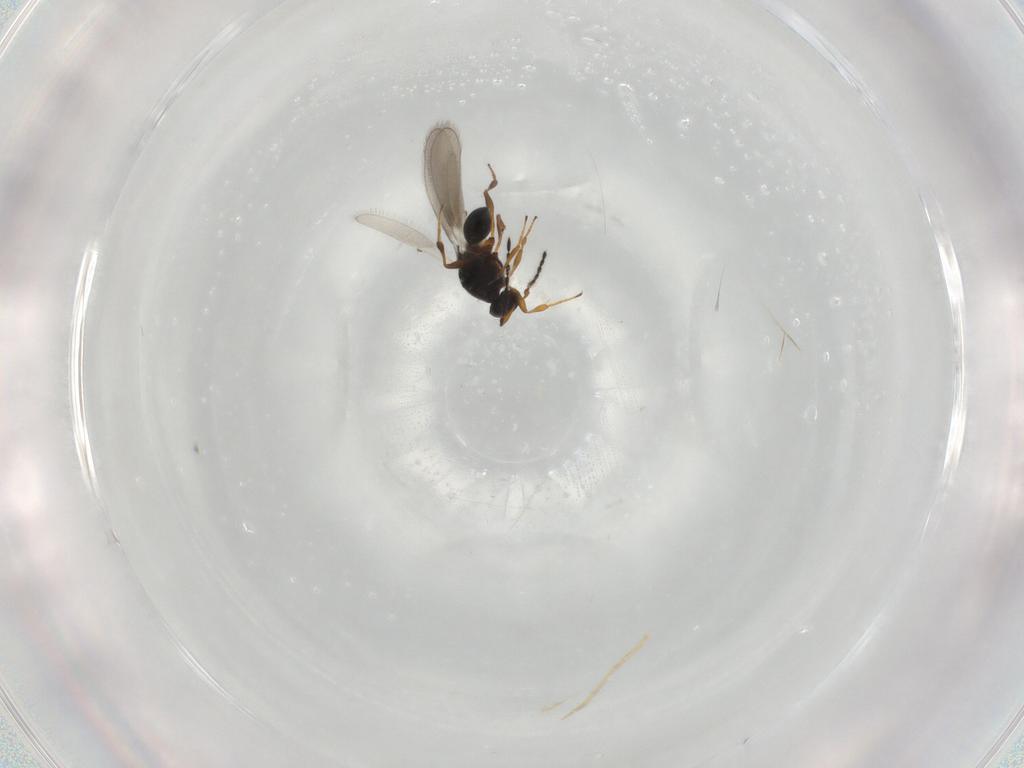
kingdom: Animalia
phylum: Arthropoda
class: Insecta
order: Hymenoptera
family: Platygastridae
